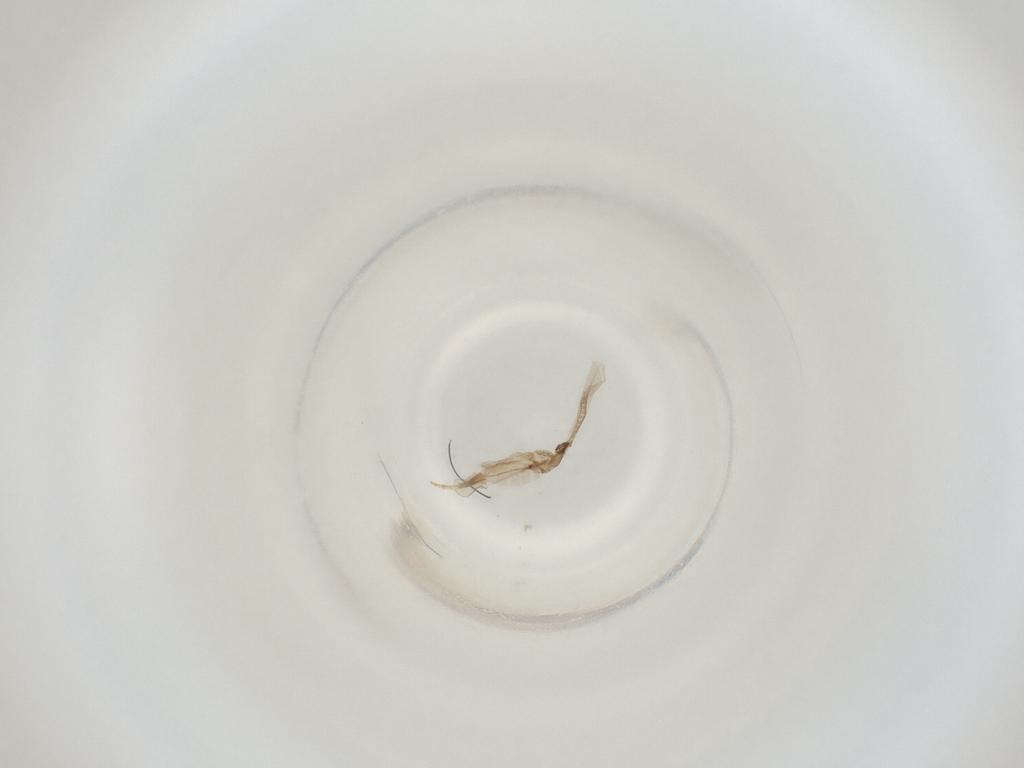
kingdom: Animalia
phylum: Arthropoda
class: Insecta
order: Diptera
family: Cecidomyiidae
